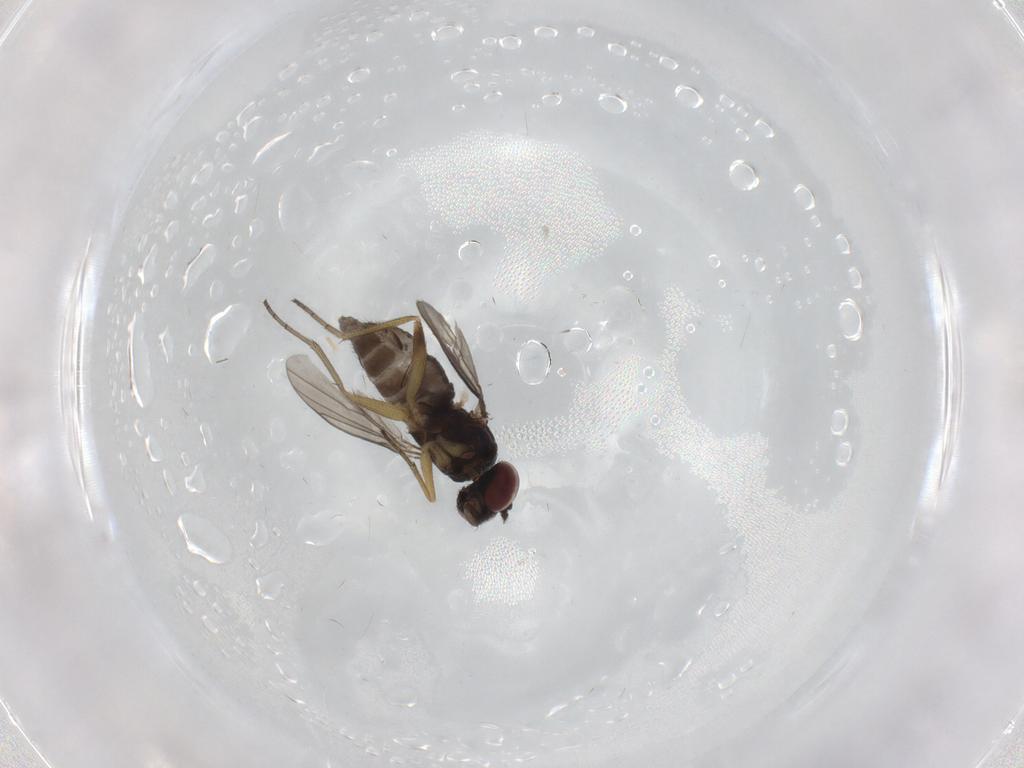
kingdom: Animalia
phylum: Arthropoda
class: Insecta
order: Diptera
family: Dolichopodidae
